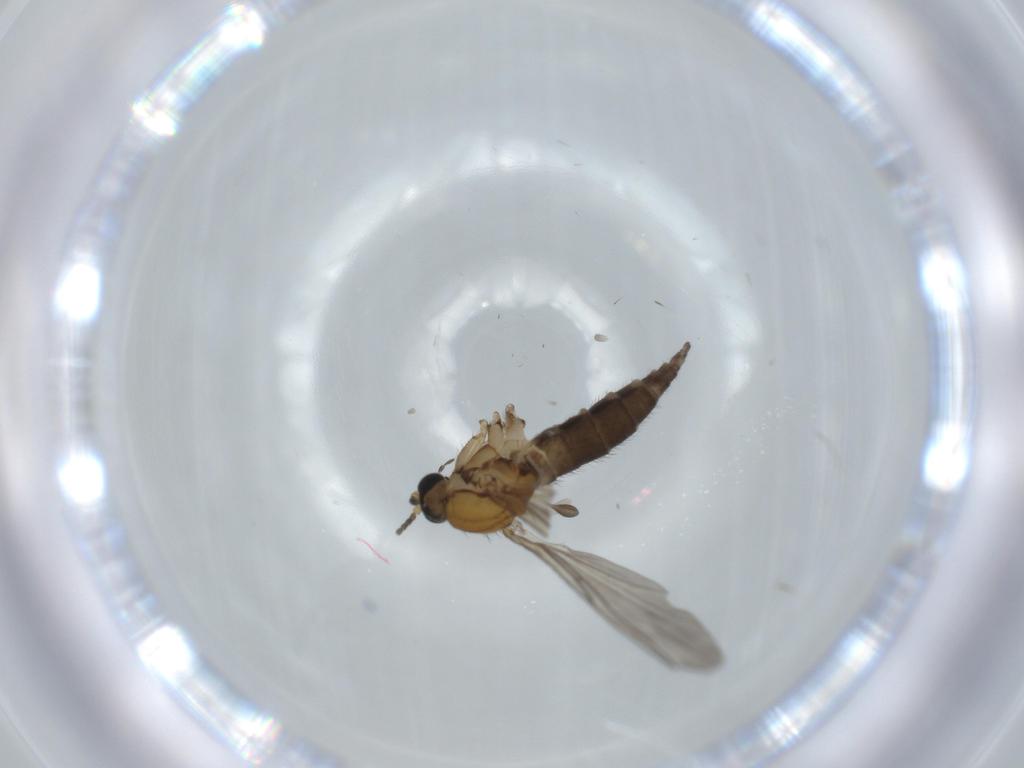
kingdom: Animalia
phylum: Arthropoda
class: Insecta
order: Diptera
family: Sciaridae
